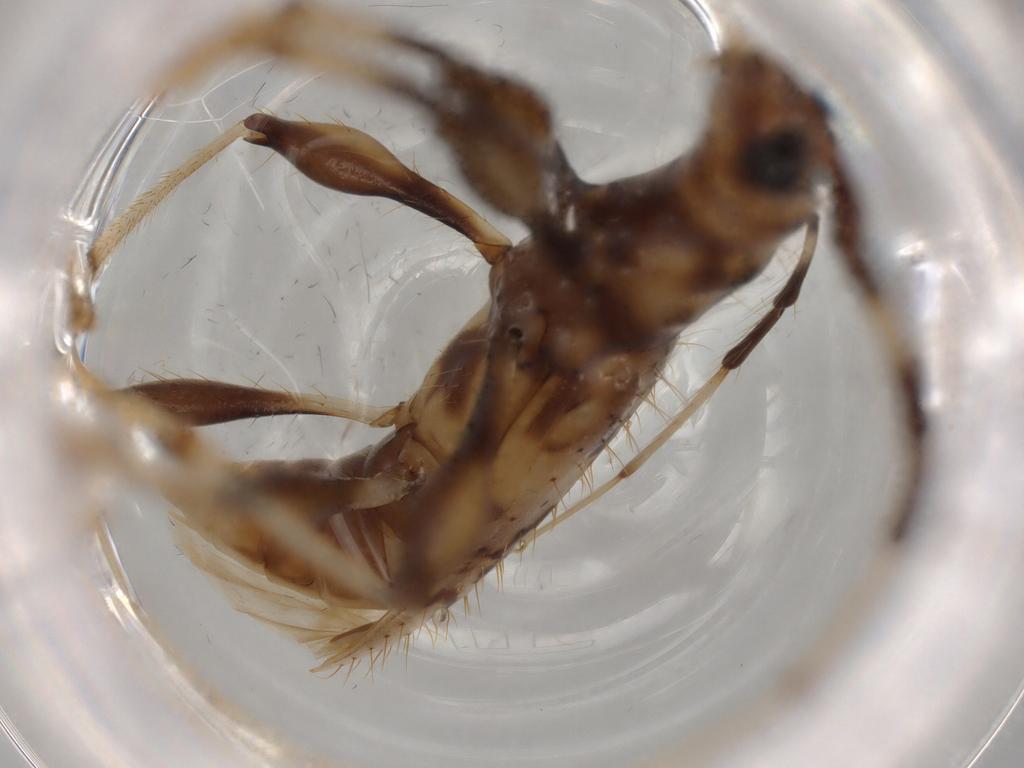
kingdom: Animalia
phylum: Arthropoda
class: Insecta
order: Coleoptera
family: Cerambycidae
